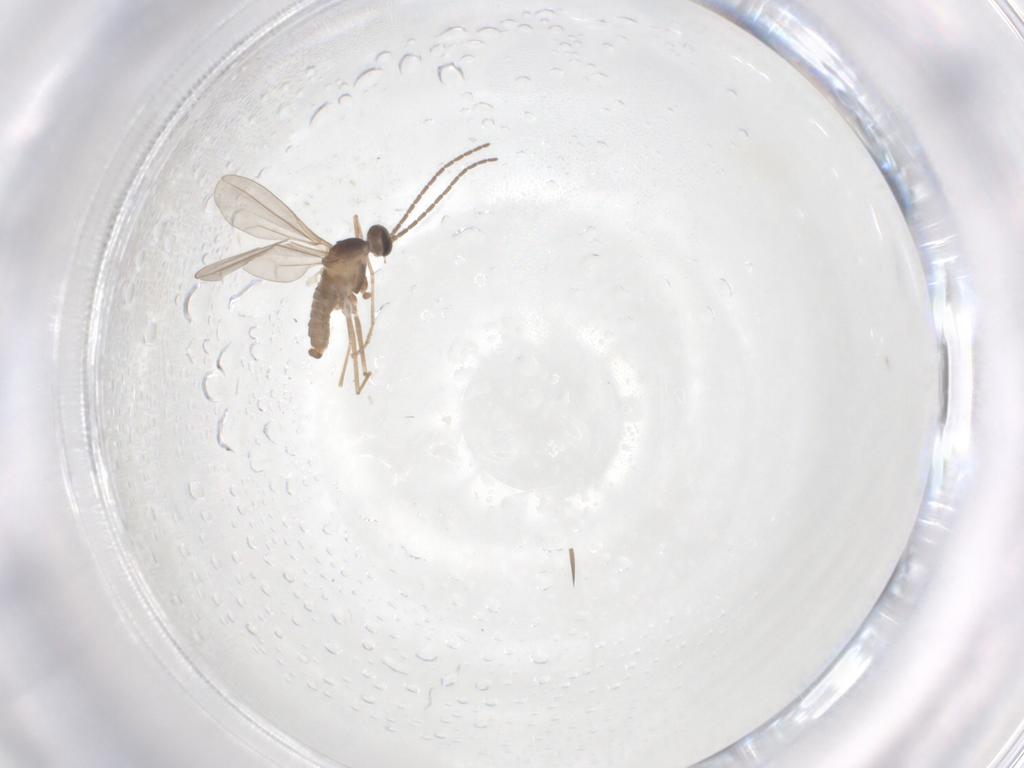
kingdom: Animalia
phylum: Arthropoda
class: Insecta
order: Diptera
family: Cecidomyiidae
